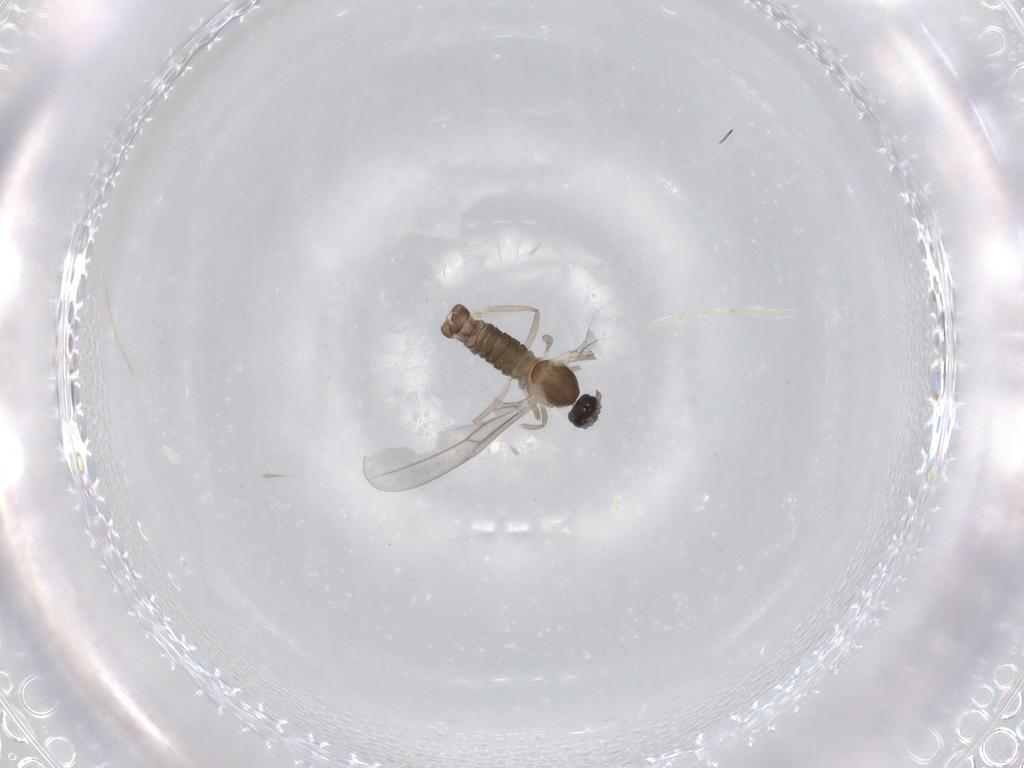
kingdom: Animalia
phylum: Arthropoda
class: Insecta
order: Diptera
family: Cecidomyiidae
